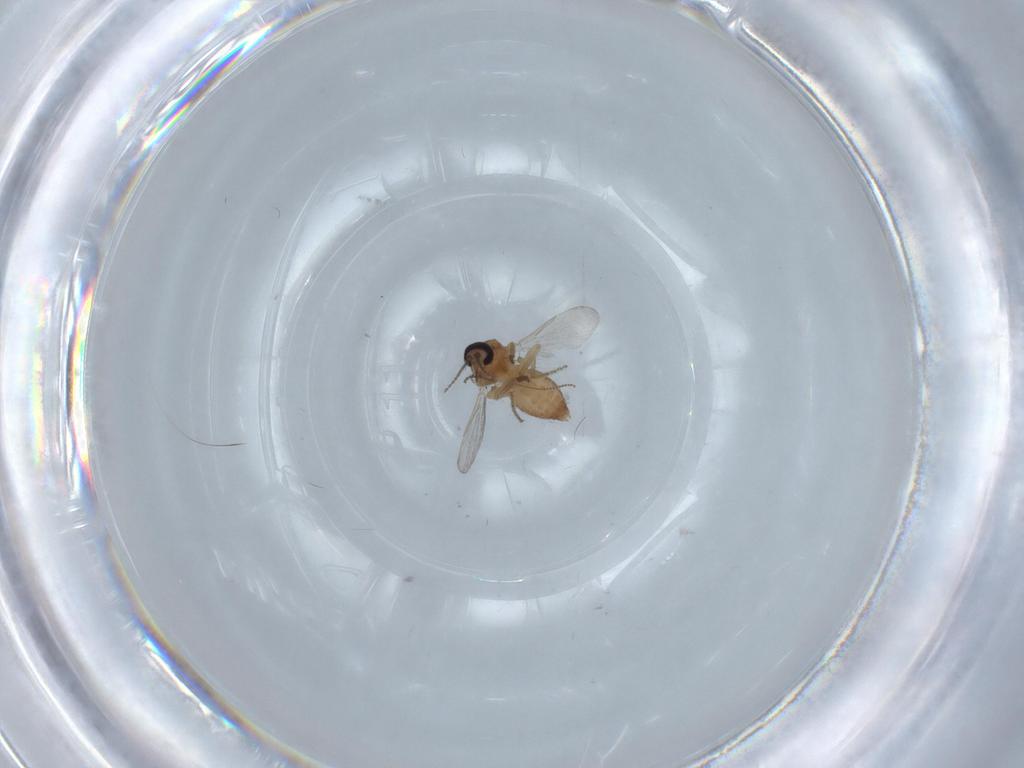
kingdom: Animalia
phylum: Arthropoda
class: Insecta
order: Diptera
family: Ceratopogonidae
